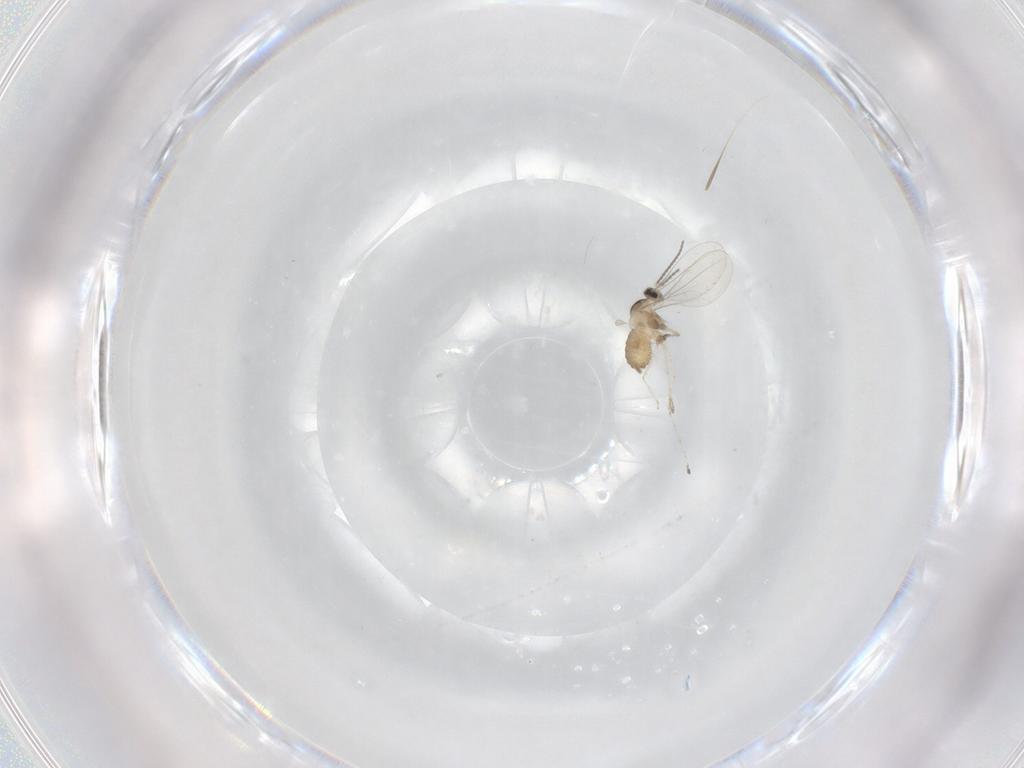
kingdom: Animalia
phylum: Arthropoda
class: Insecta
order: Diptera
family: Cecidomyiidae
